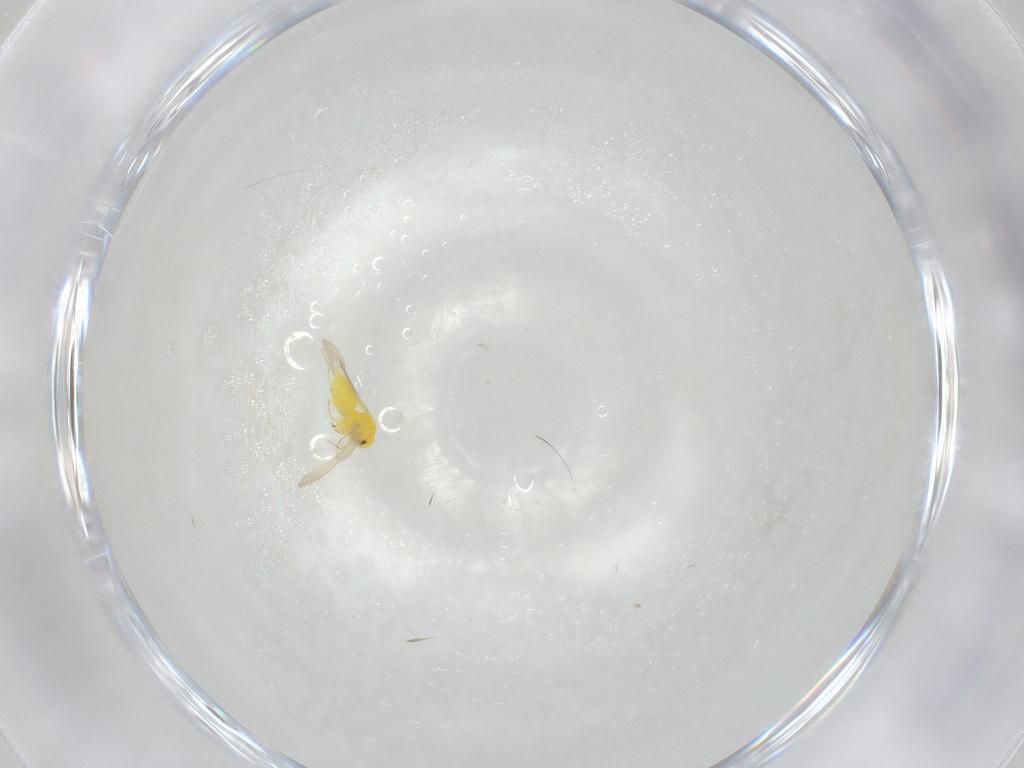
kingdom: Animalia
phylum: Arthropoda
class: Insecta
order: Hemiptera
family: Aleyrodidae
